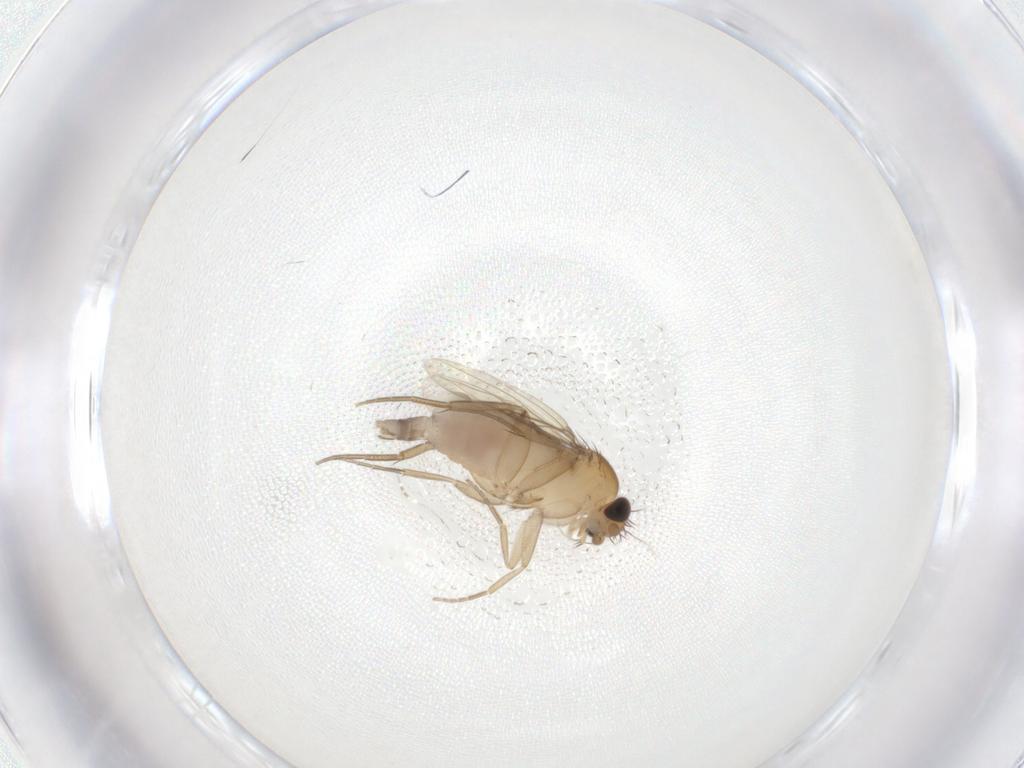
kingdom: Animalia
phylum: Arthropoda
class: Insecta
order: Diptera
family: Phoridae
